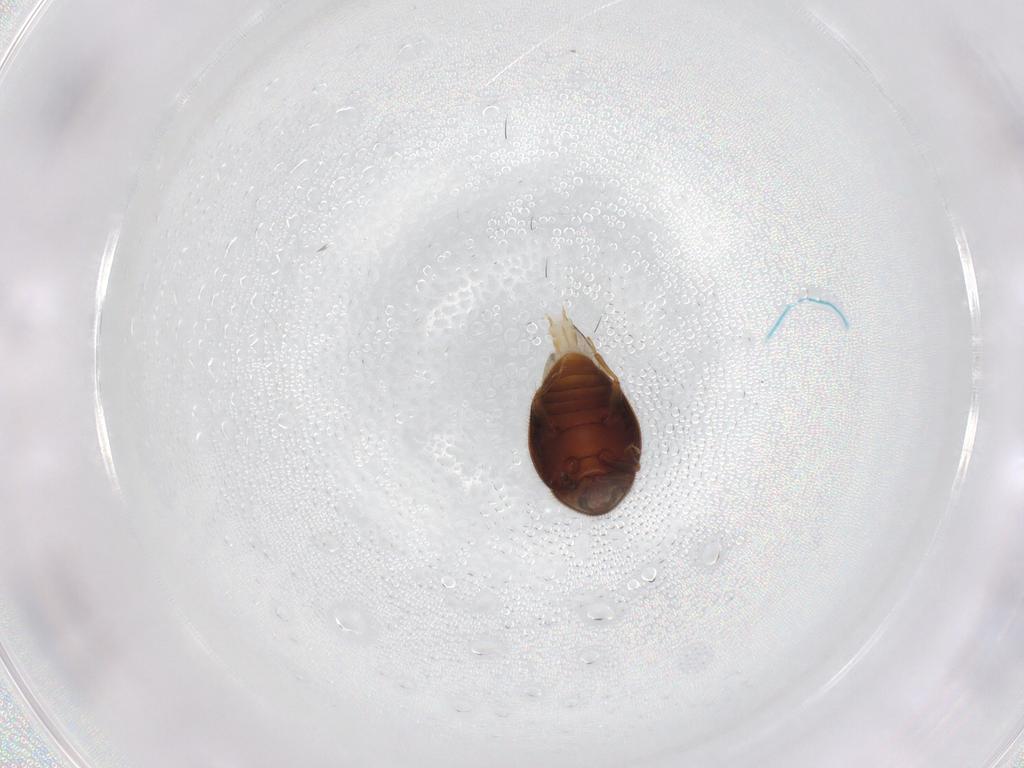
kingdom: Animalia
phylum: Arthropoda
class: Insecta
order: Coleoptera
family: Corylophidae
